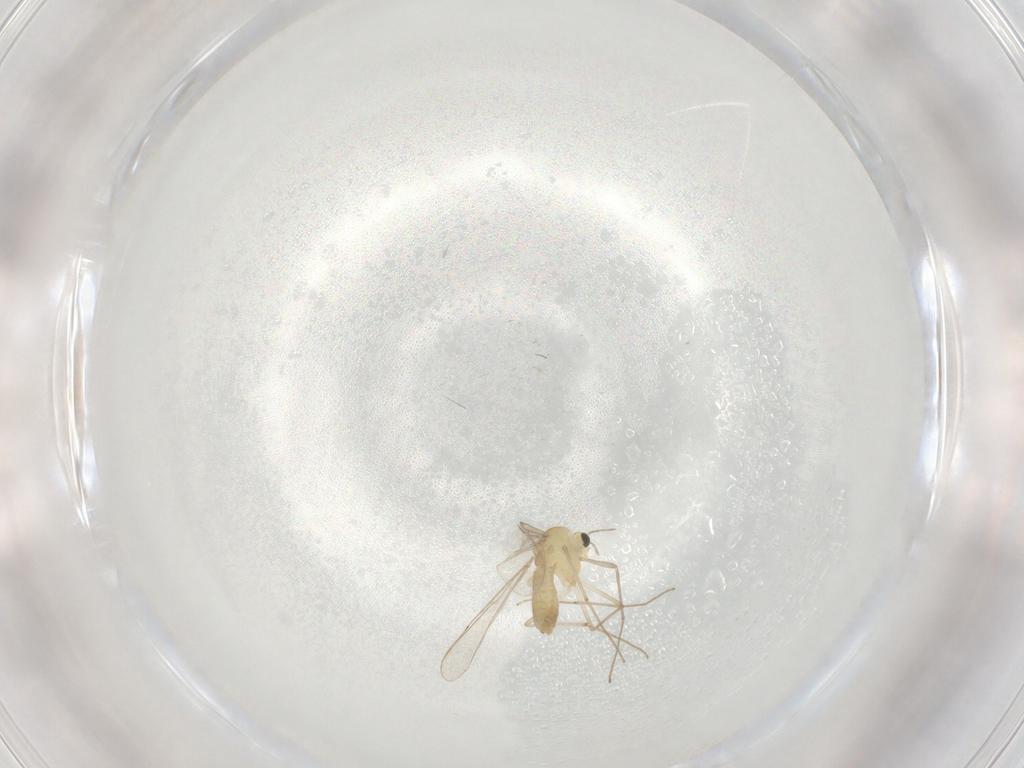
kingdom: Animalia
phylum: Arthropoda
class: Insecta
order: Diptera
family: Chironomidae
